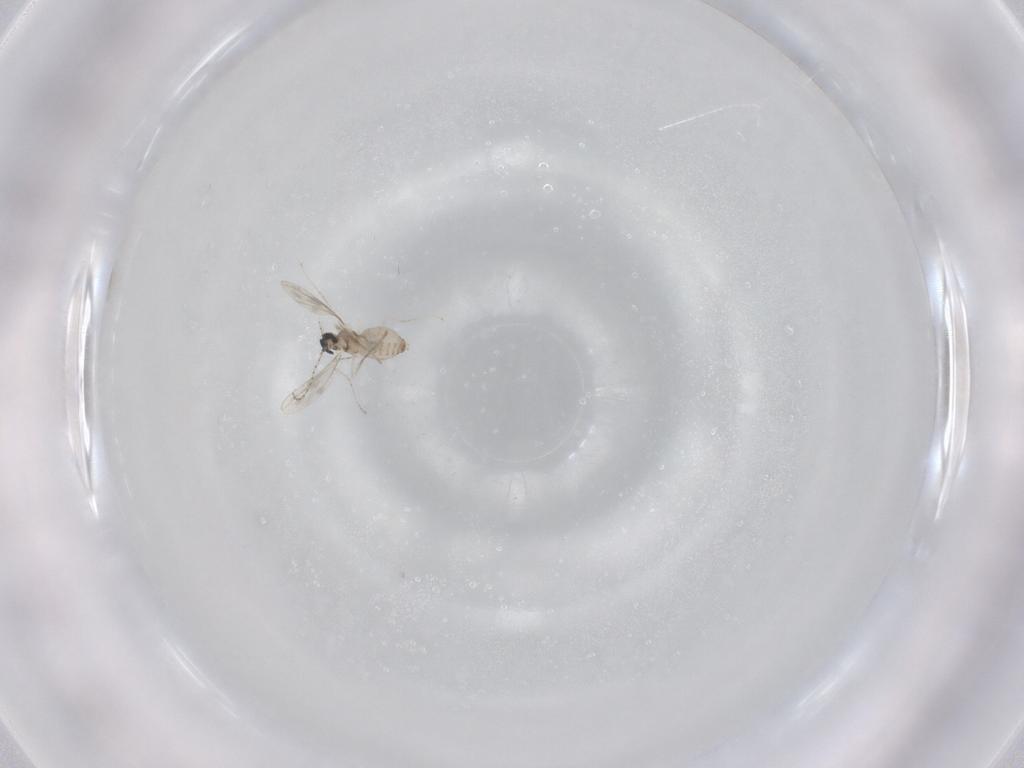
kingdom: Animalia
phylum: Arthropoda
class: Insecta
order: Diptera
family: Cecidomyiidae
